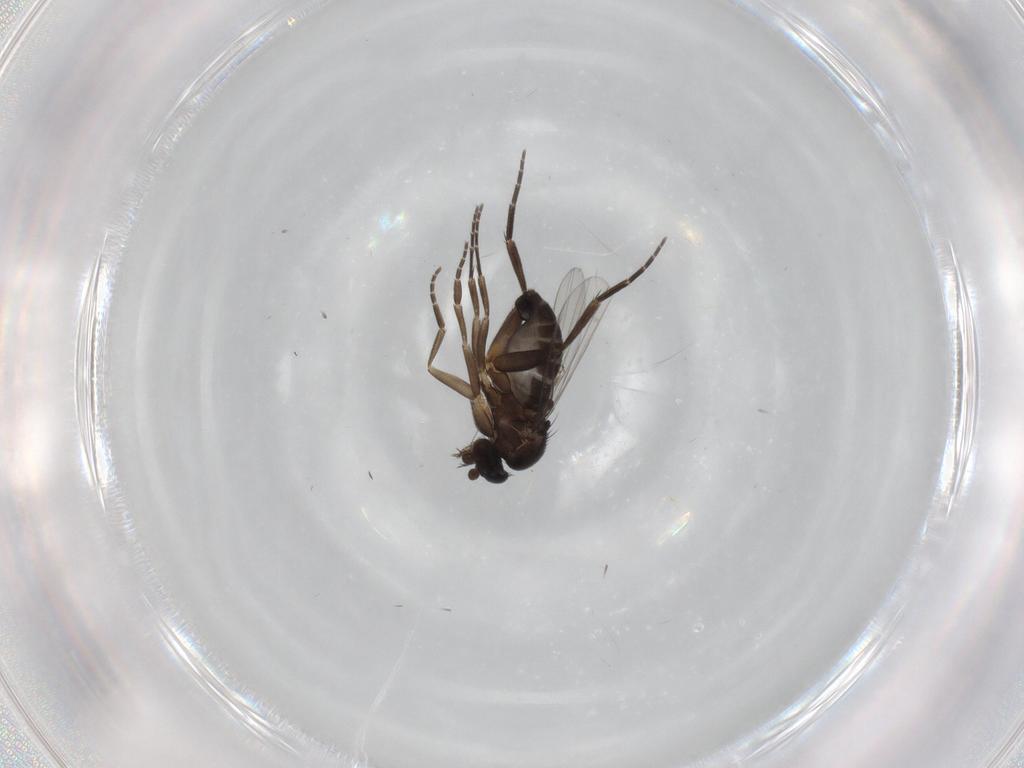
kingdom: Animalia
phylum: Arthropoda
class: Insecta
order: Diptera
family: Phoridae
